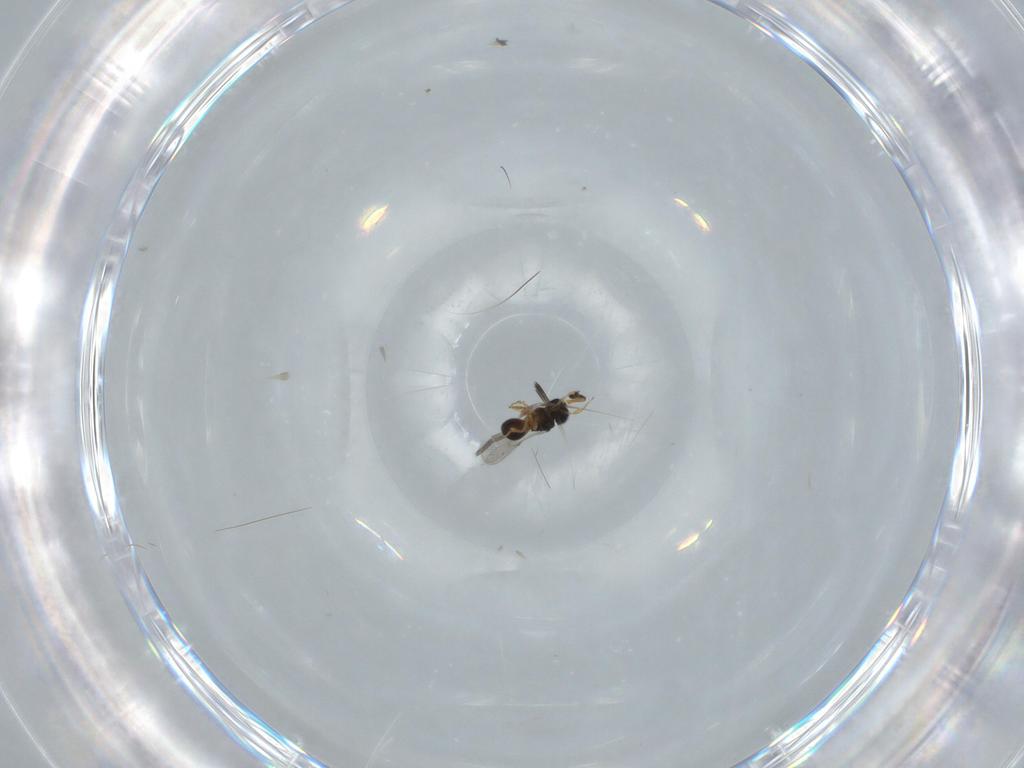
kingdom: Animalia
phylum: Arthropoda
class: Insecta
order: Hymenoptera
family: Scelionidae
